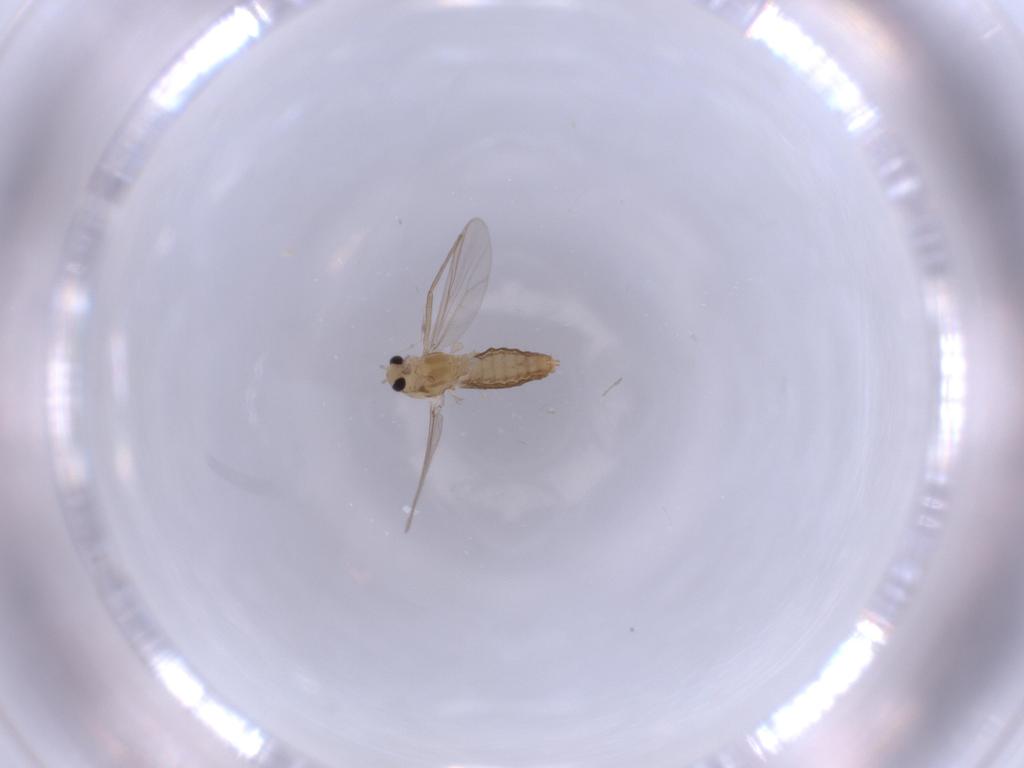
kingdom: Animalia
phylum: Arthropoda
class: Insecta
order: Diptera
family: Chironomidae
